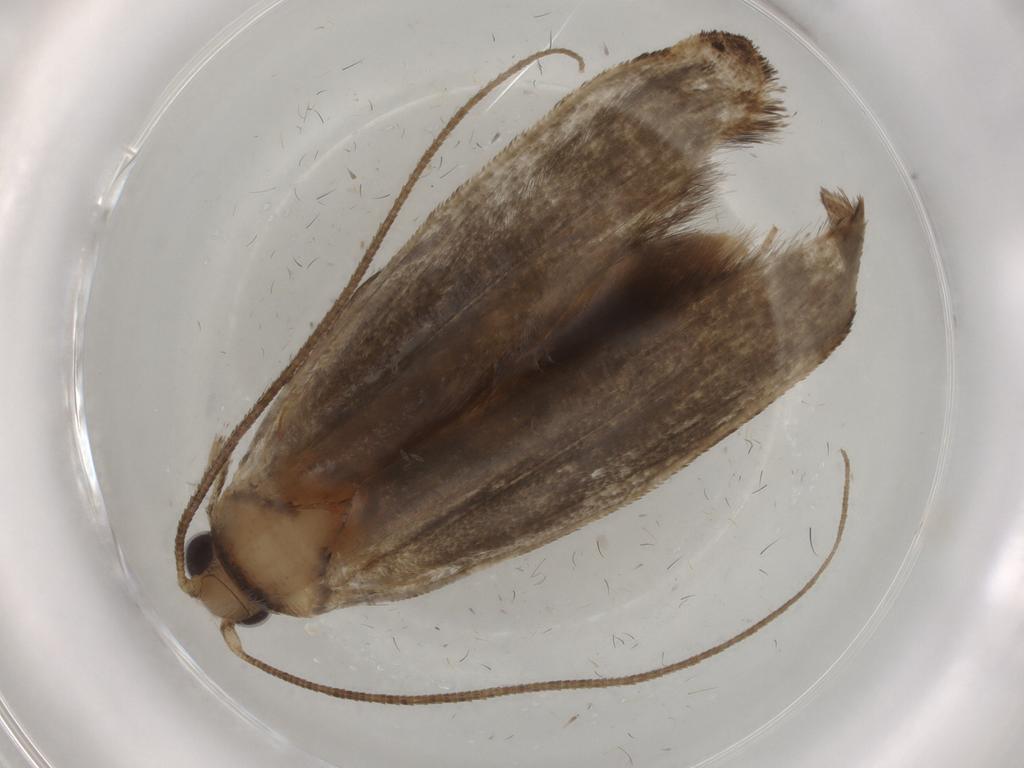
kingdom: Animalia
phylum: Arthropoda
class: Insecta
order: Lepidoptera
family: Yponomeutidae
